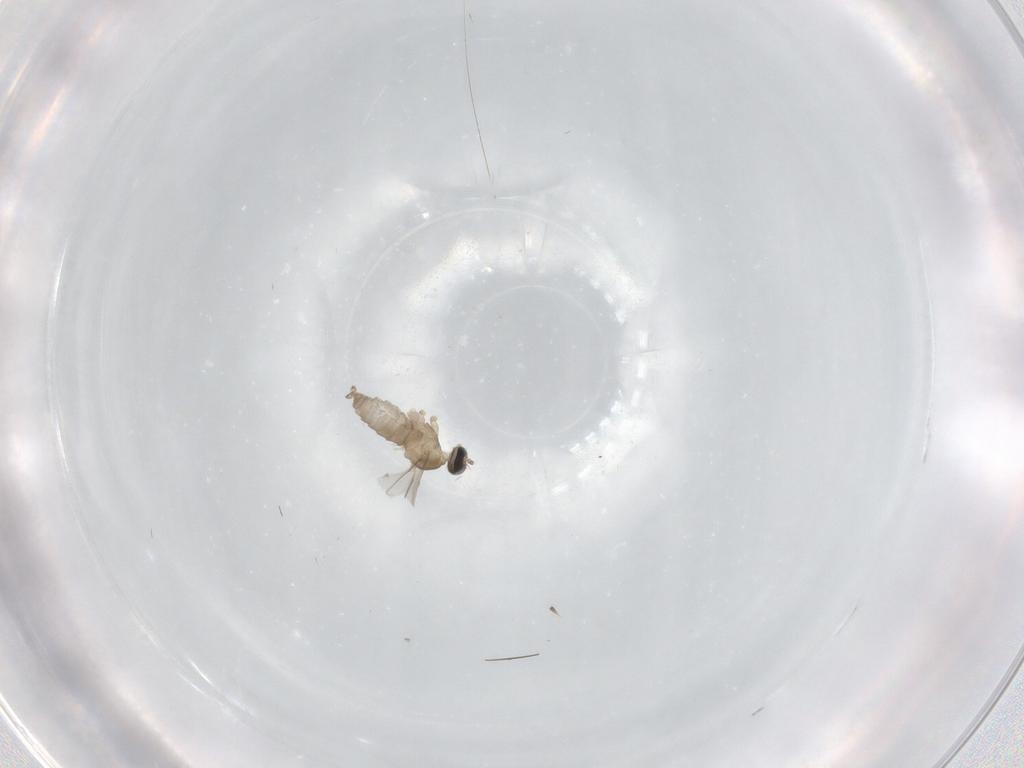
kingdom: Animalia
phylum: Arthropoda
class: Insecta
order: Diptera
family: Cecidomyiidae
